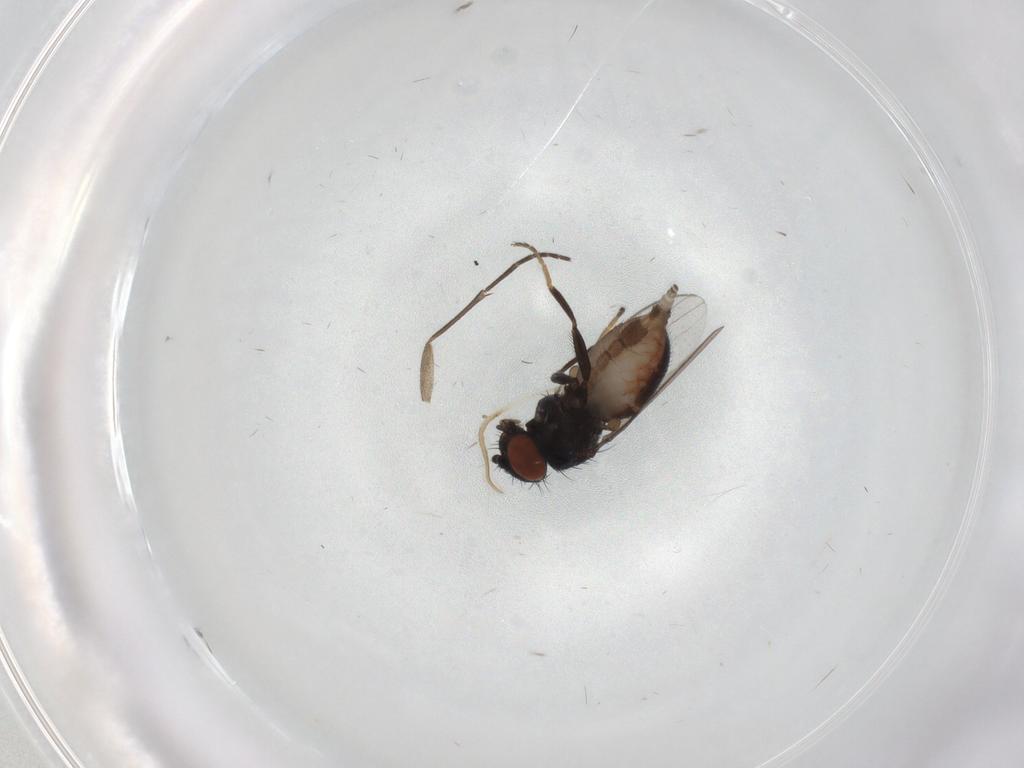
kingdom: Animalia
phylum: Arthropoda
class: Insecta
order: Diptera
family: Milichiidae
